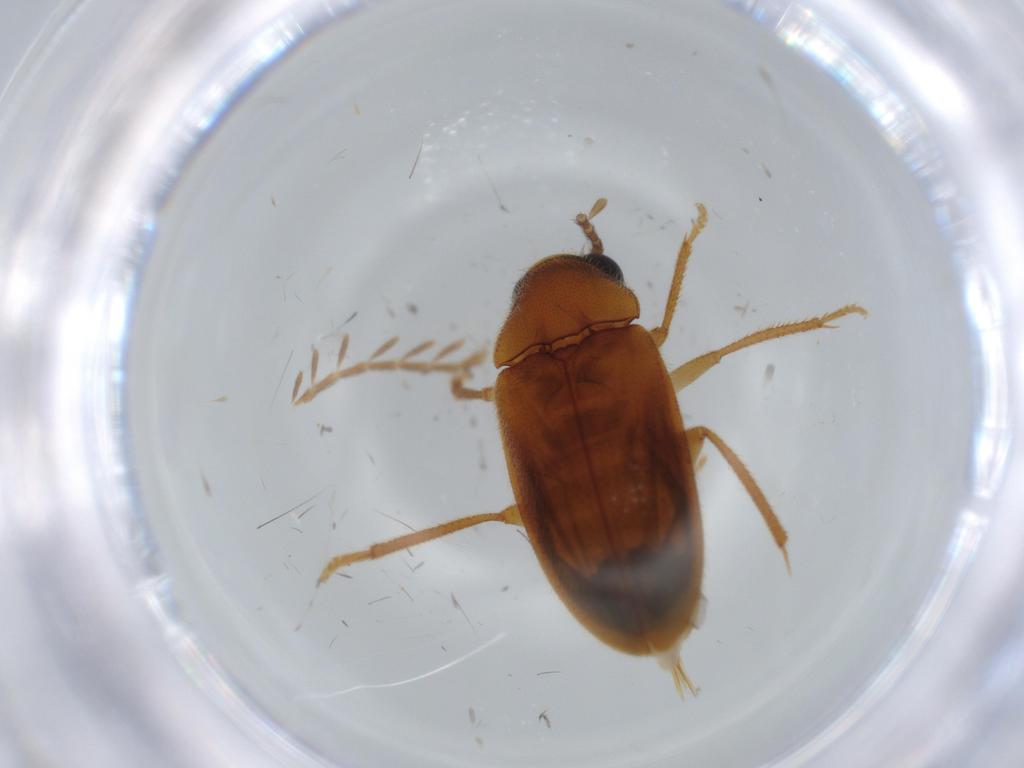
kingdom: Animalia
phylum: Arthropoda
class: Insecta
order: Coleoptera
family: Ptilodactylidae
